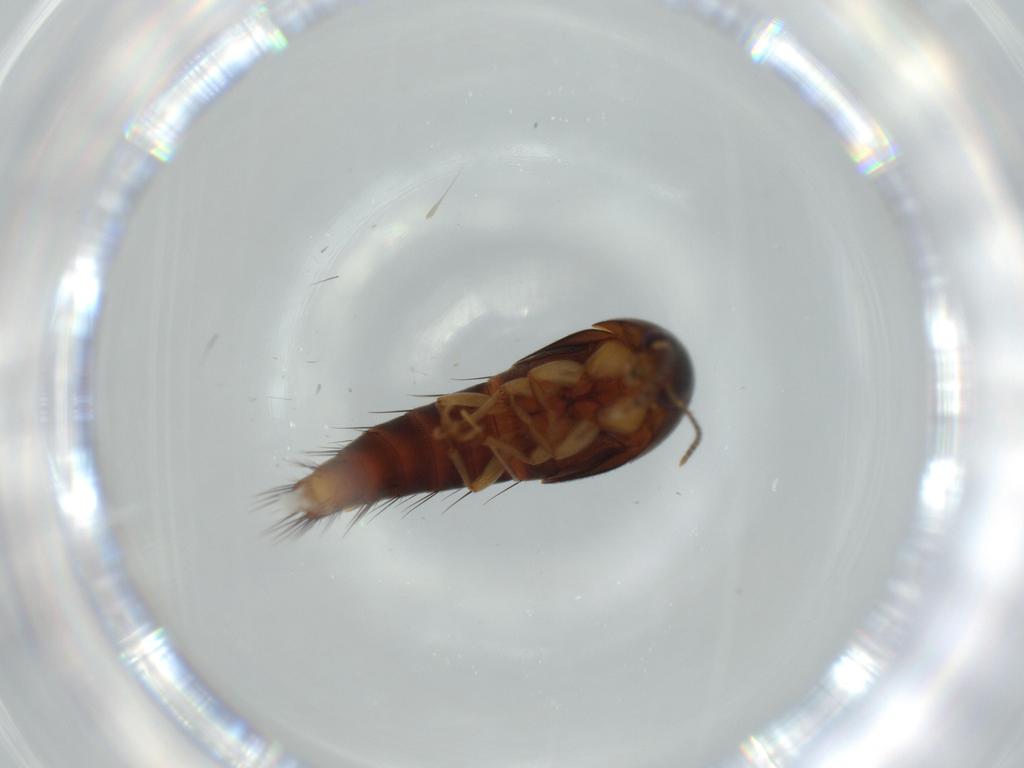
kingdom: Animalia
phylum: Arthropoda
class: Insecta
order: Coleoptera
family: Staphylinidae
